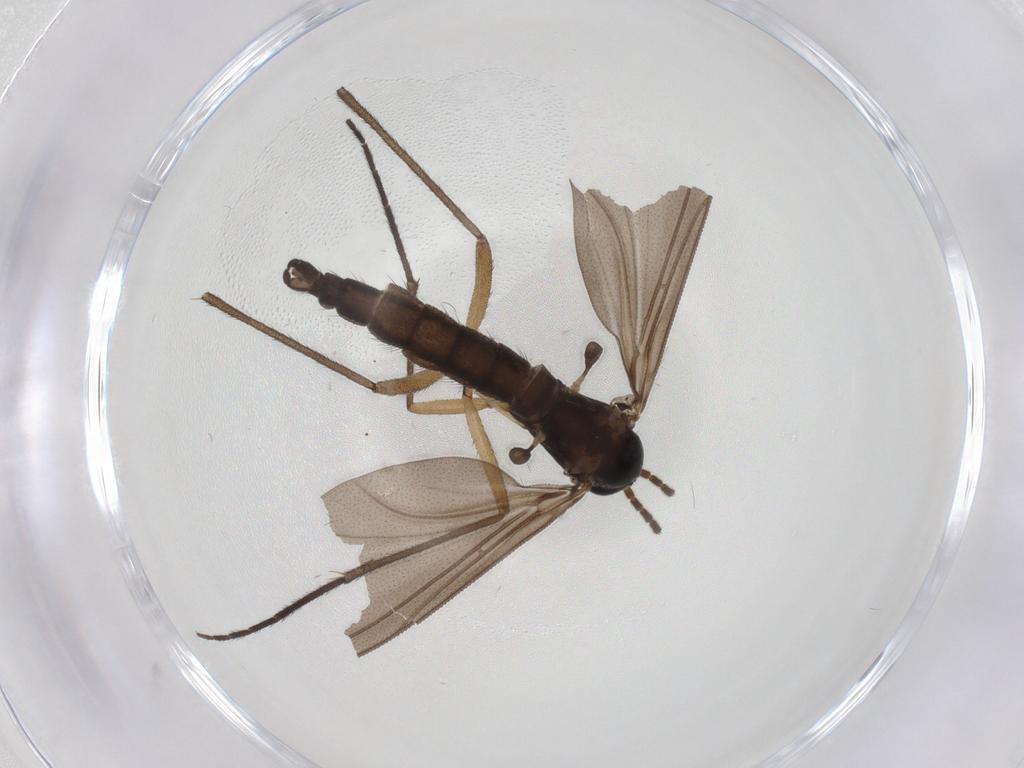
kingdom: Animalia
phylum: Arthropoda
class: Insecta
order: Diptera
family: Sciaridae
